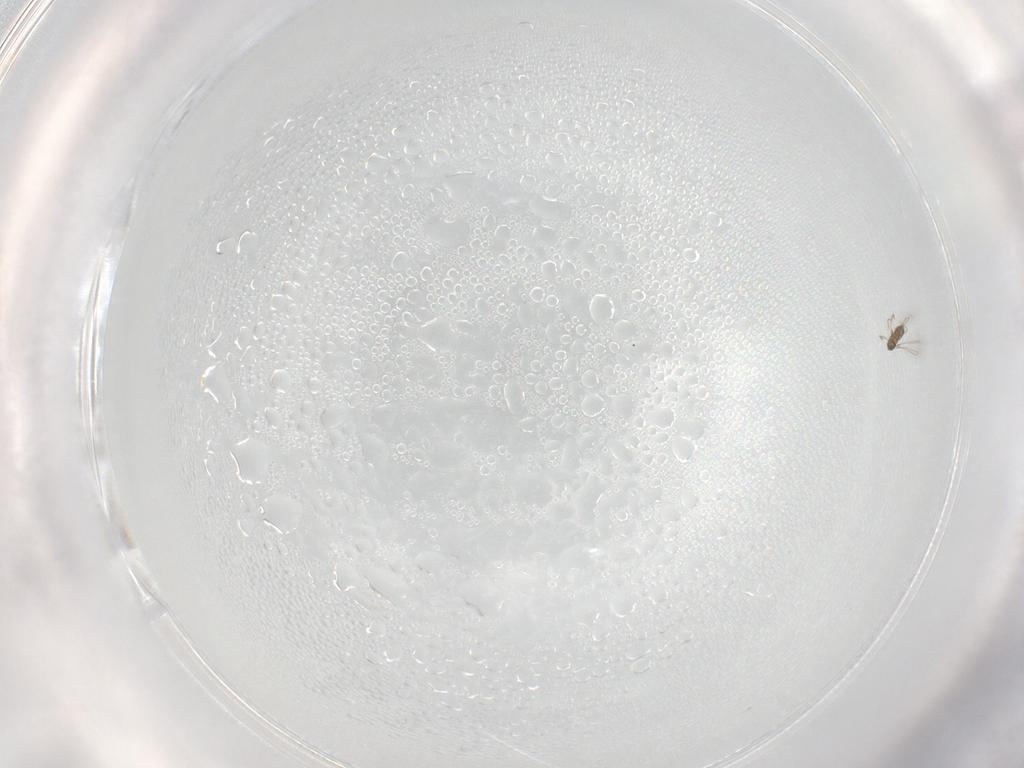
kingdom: Animalia
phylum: Arthropoda
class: Insecta
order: Hymenoptera
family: Mymaridae
